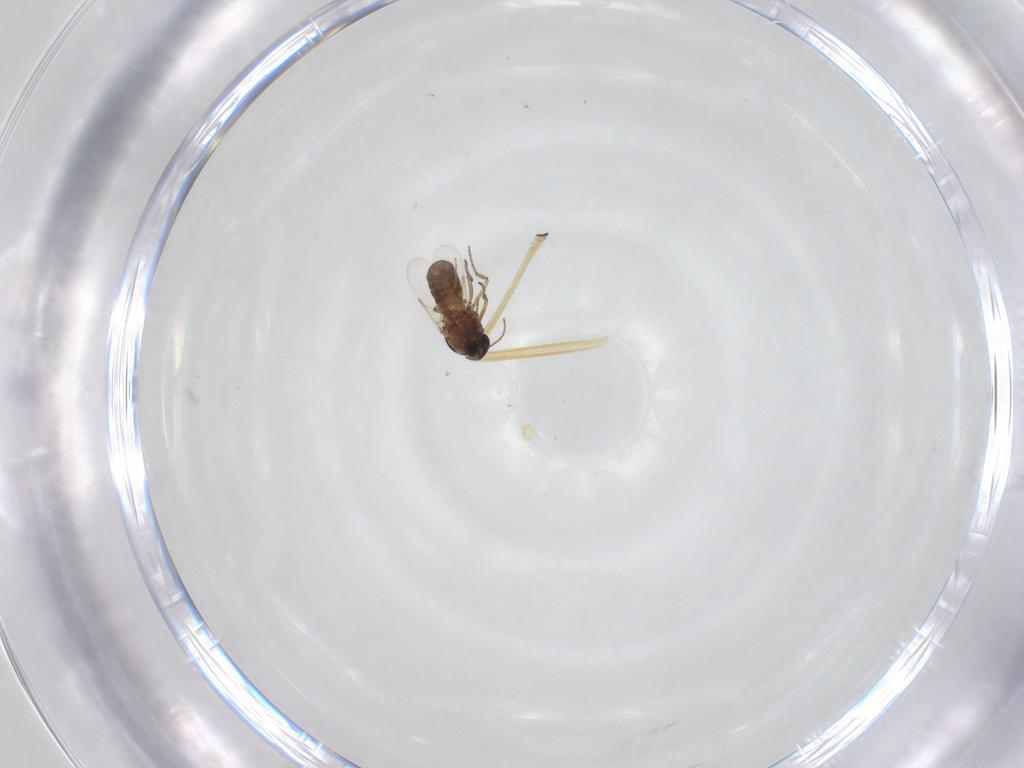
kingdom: Animalia
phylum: Arthropoda
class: Insecta
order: Diptera
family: Chironomidae
